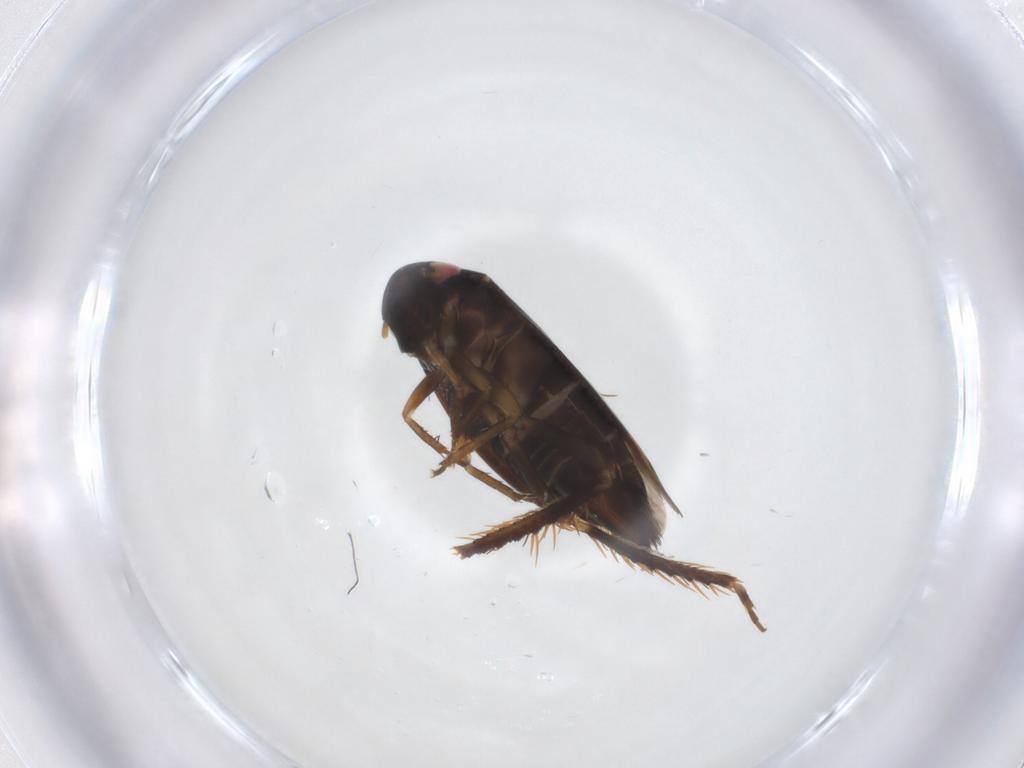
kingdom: Animalia
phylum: Arthropoda
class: Insecta
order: Hemiptera
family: Cicadellidae
